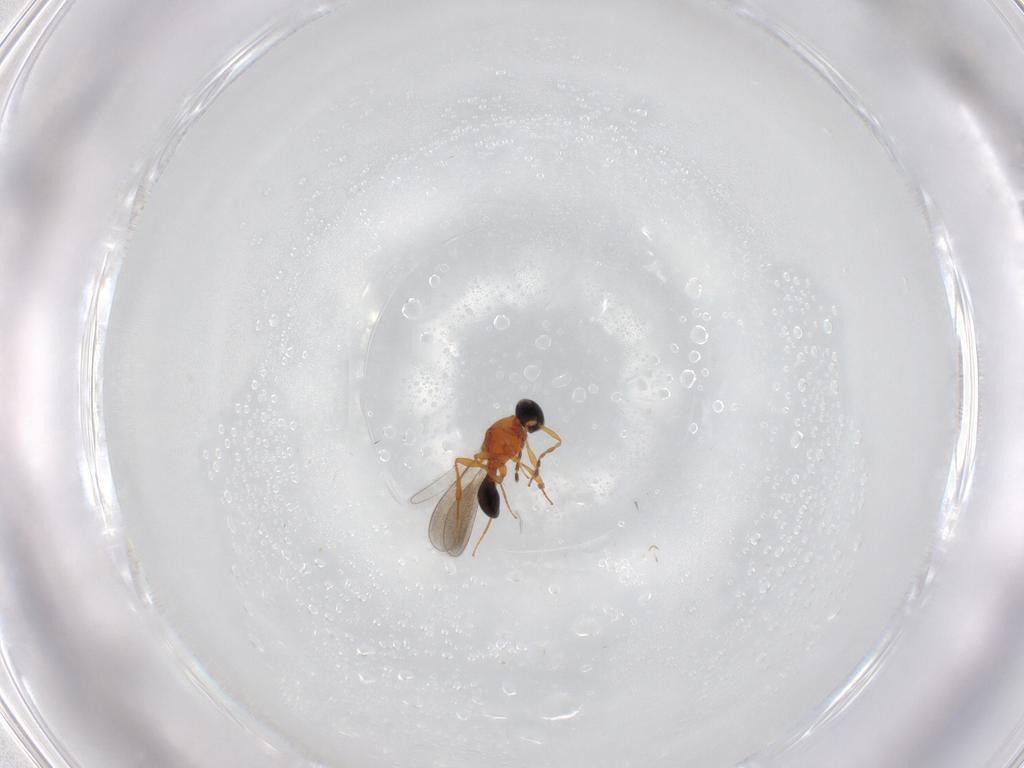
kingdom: Animalia
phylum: Arthropoda
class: Insecta
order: Hymenoptera
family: Platygastridae
